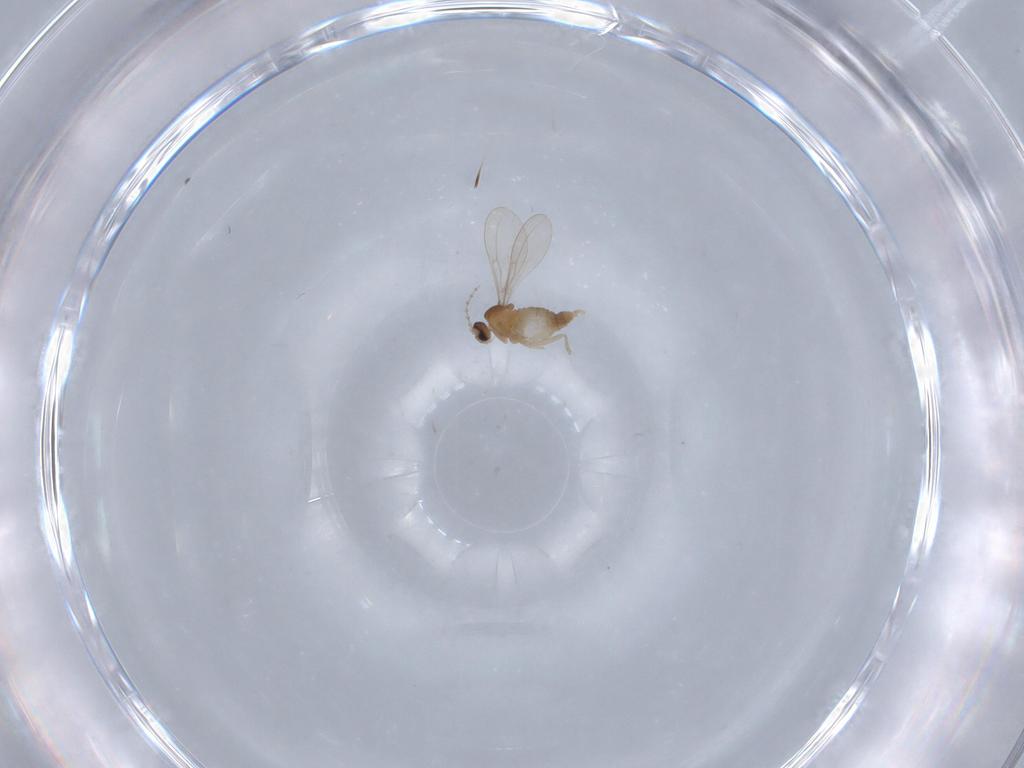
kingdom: Animalia
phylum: Arthropoda
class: Insecta
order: Diptera
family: Cecidomyiidae
